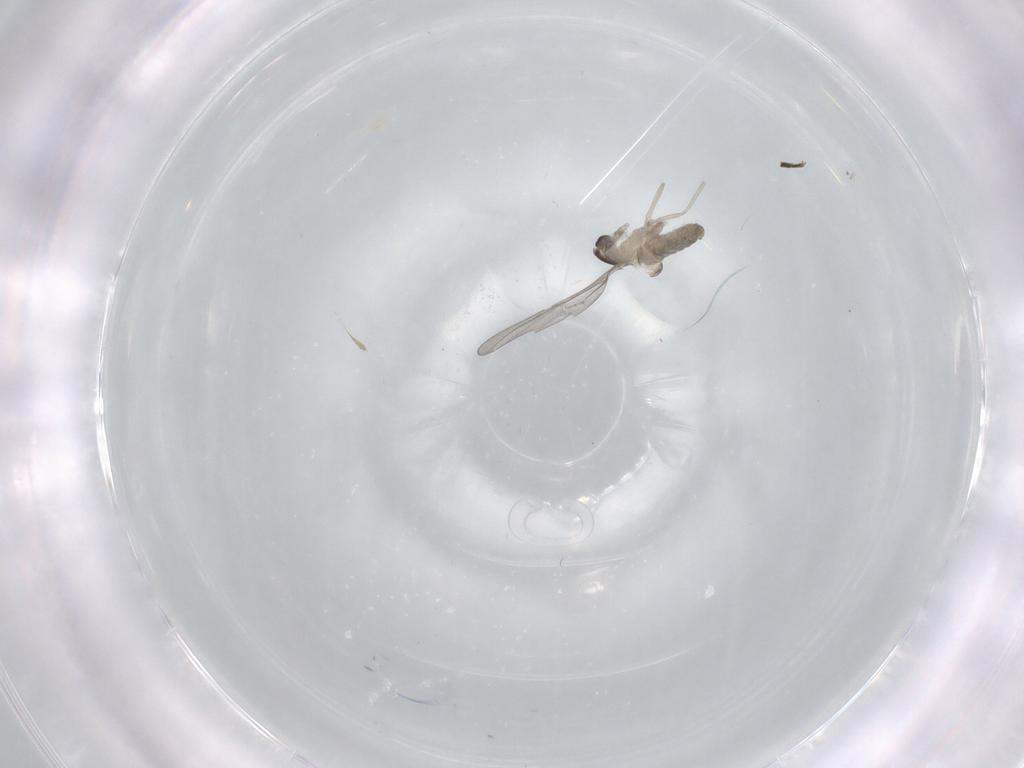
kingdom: Animalia
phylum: Arthropoda
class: Insecta
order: Diptera
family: Cecidomyiidae
